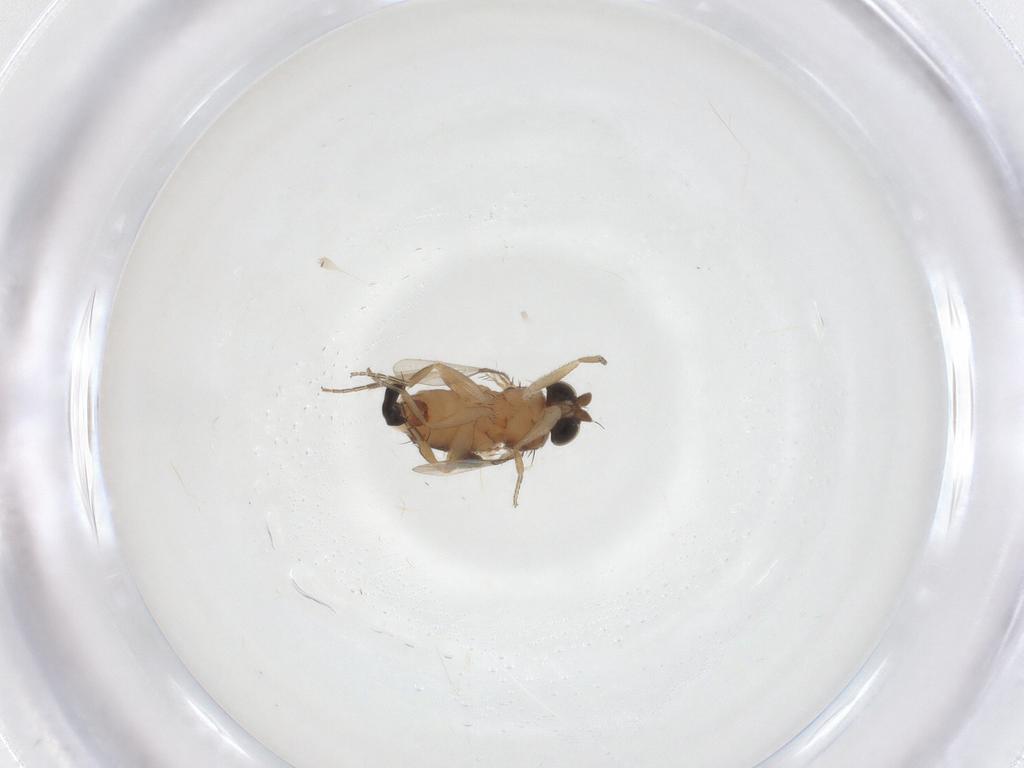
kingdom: Animalia
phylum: Arthropoda
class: Insecta
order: Diptera
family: Cecidomyiidae
